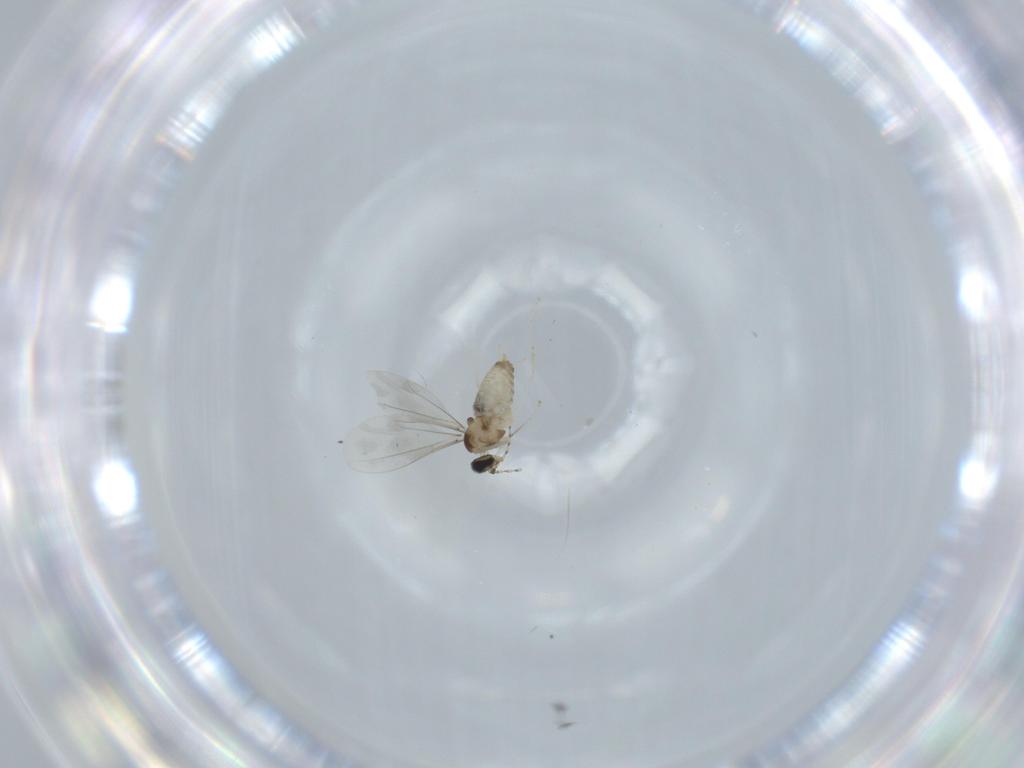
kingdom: Animalia
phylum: Arthropoda
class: Insecta
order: Diptera
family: Cecidomyiidae
